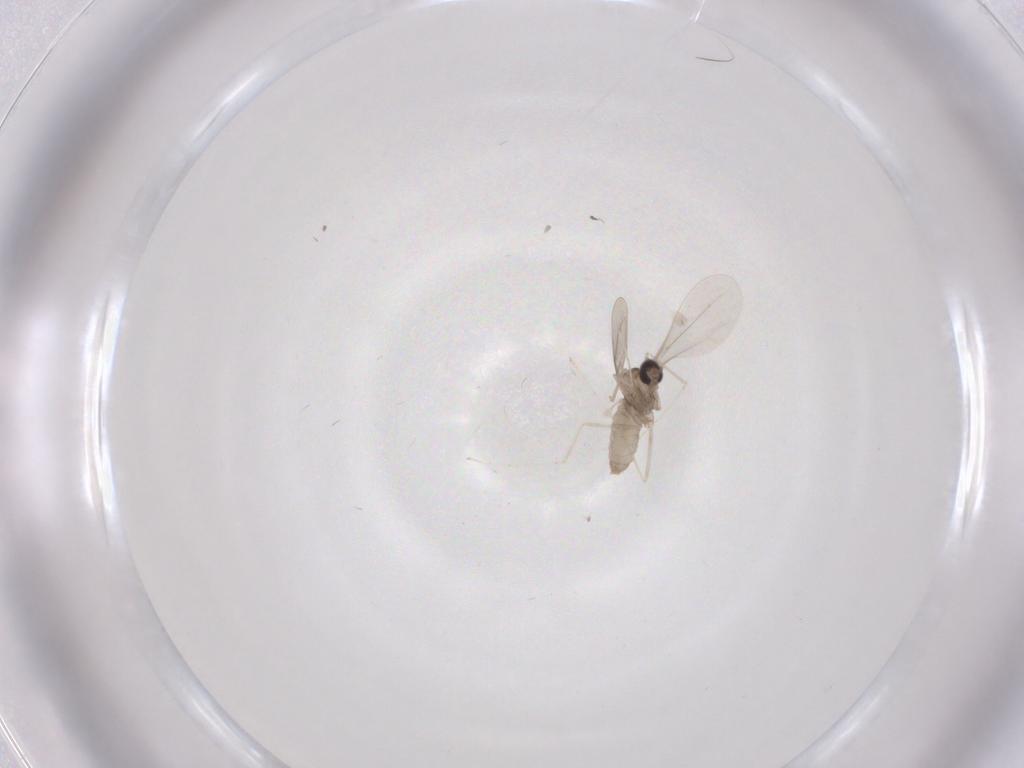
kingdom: Animalia
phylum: Arthropoda
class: Insecta
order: Diptera
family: Cecidomyiidae
